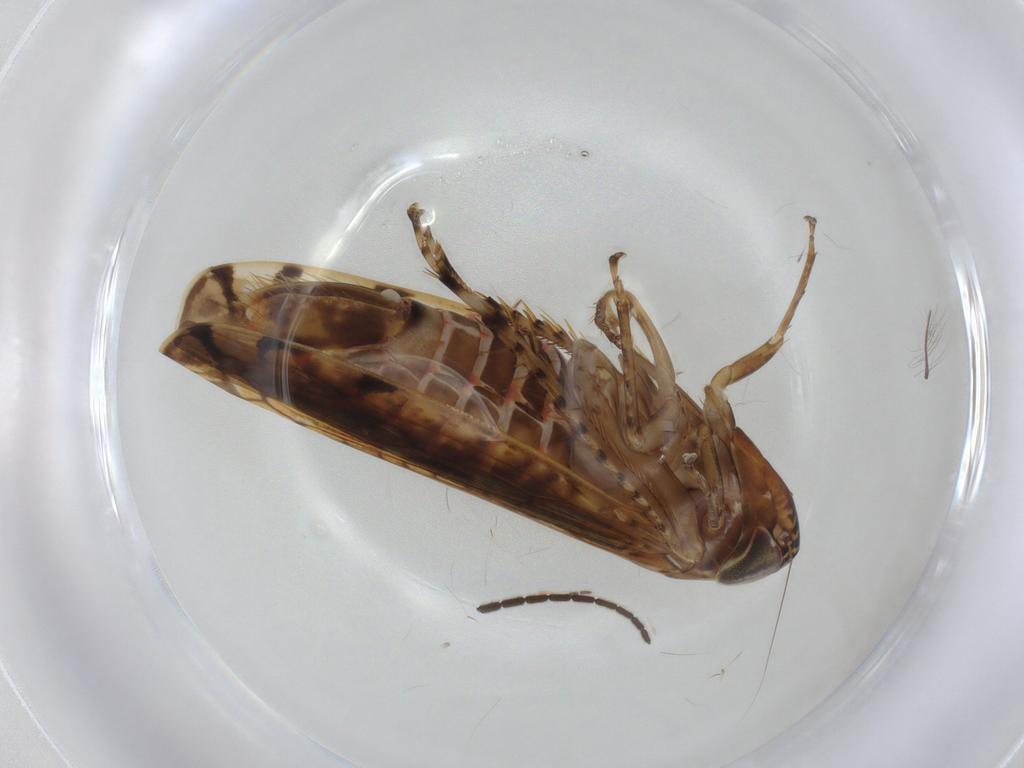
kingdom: Animalia
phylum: Arthropoda
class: Insecta
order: Hemiptera
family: Cicadellidae
